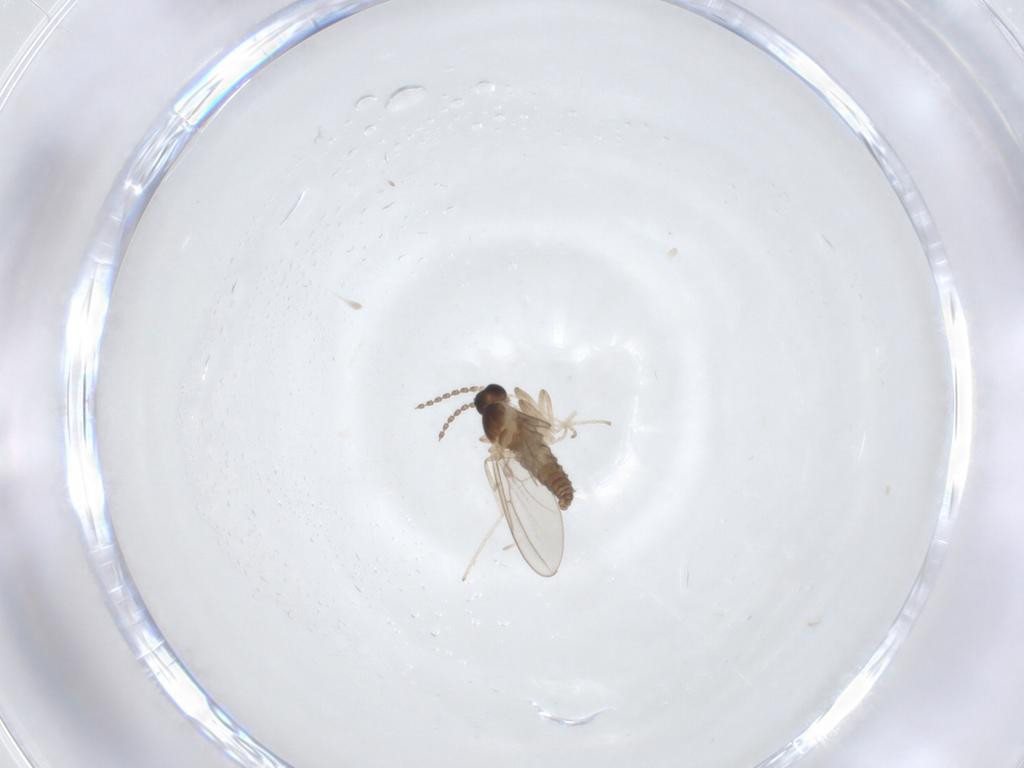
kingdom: Animalia
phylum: Arthropoda
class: Insecta
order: Diptera
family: Cecidomyiidae
